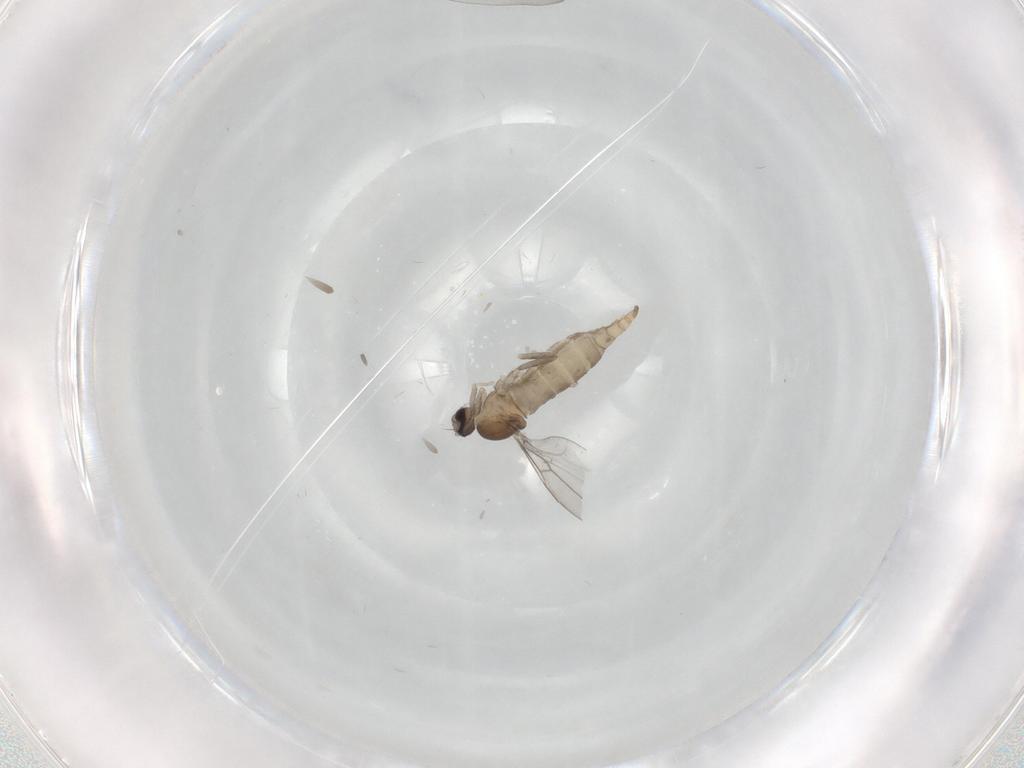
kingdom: Animalia
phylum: Arthropoda
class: Insecta
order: Diptera
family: Cecidomyiidae
